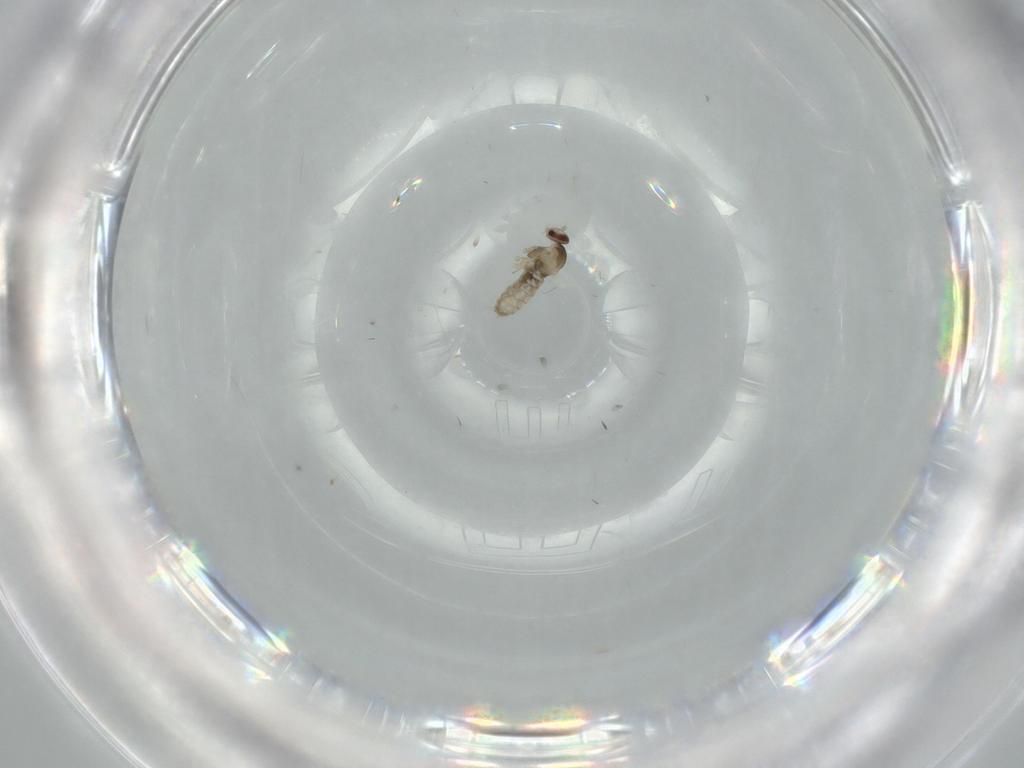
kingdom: Animalia
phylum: Arthropoda
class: Insecta
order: Diptera
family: Cecidomyiidae
